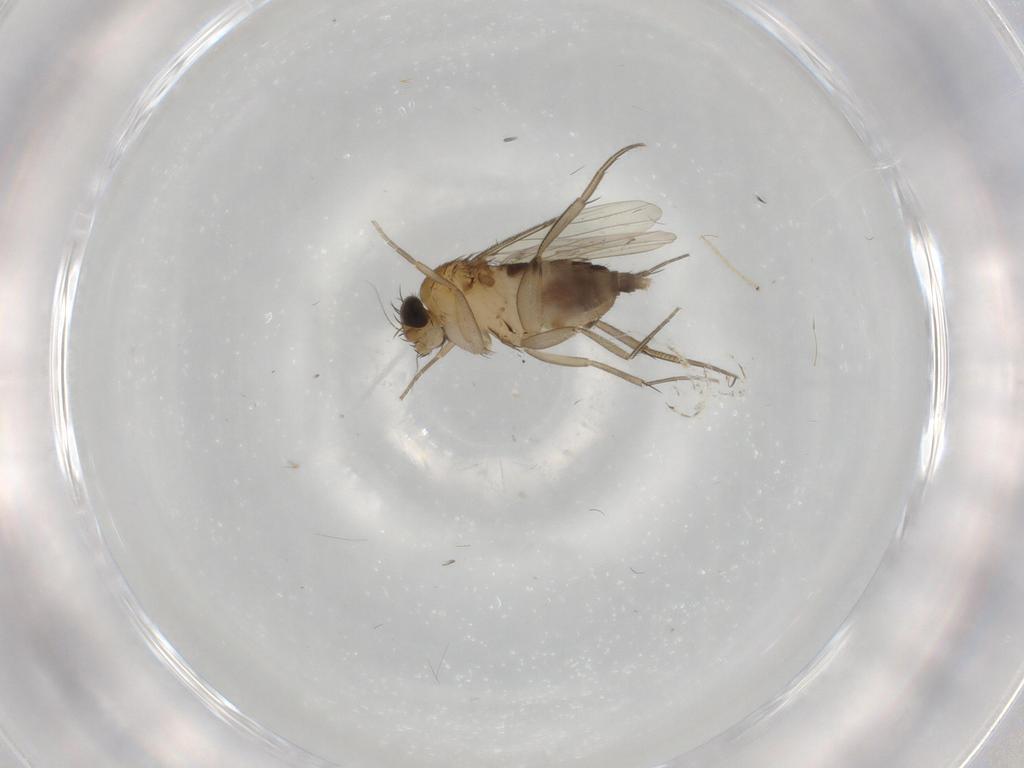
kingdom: Animalia
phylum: Arthropoda
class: Insecta
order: Diptera
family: Phoridae
